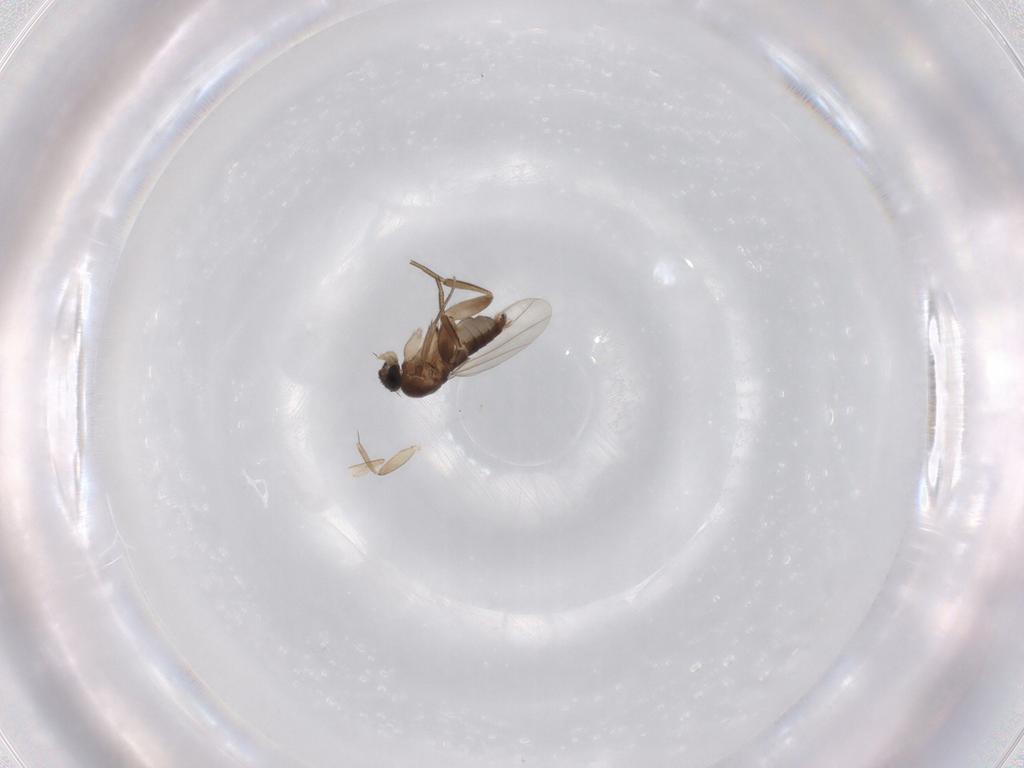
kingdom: Animalia
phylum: Arthropoda
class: Insecta
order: Diptera
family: Phoridae
